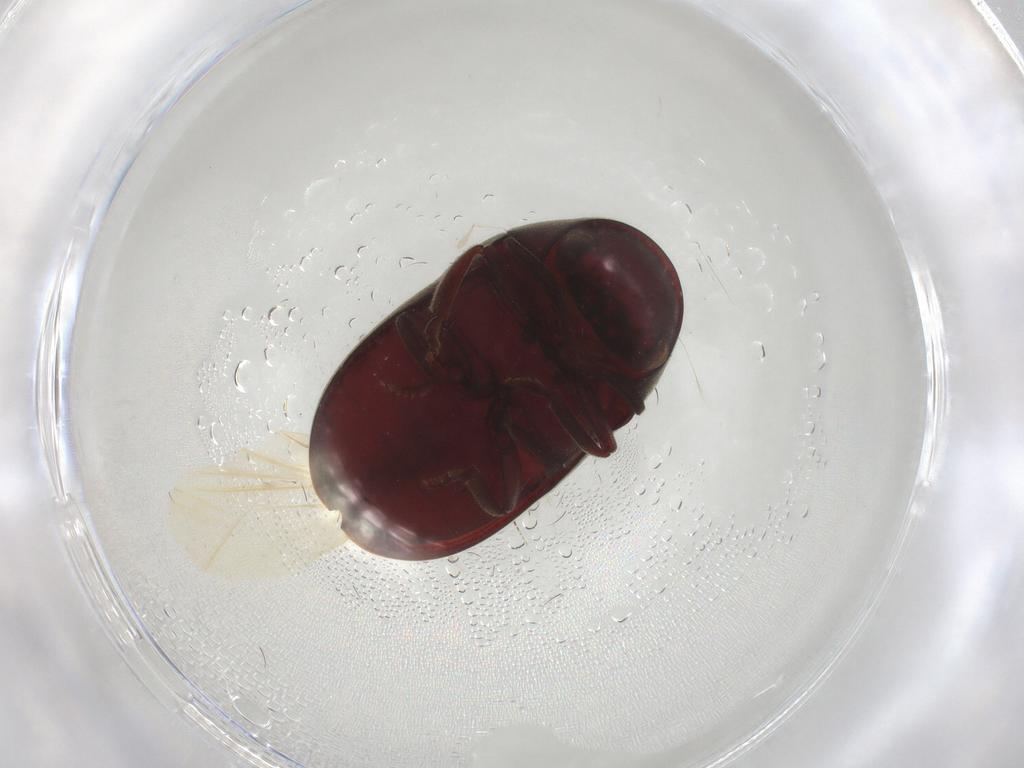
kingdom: Animalia
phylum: Arthropoda
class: Insecta
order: Coleoptera
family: Ptinidae
